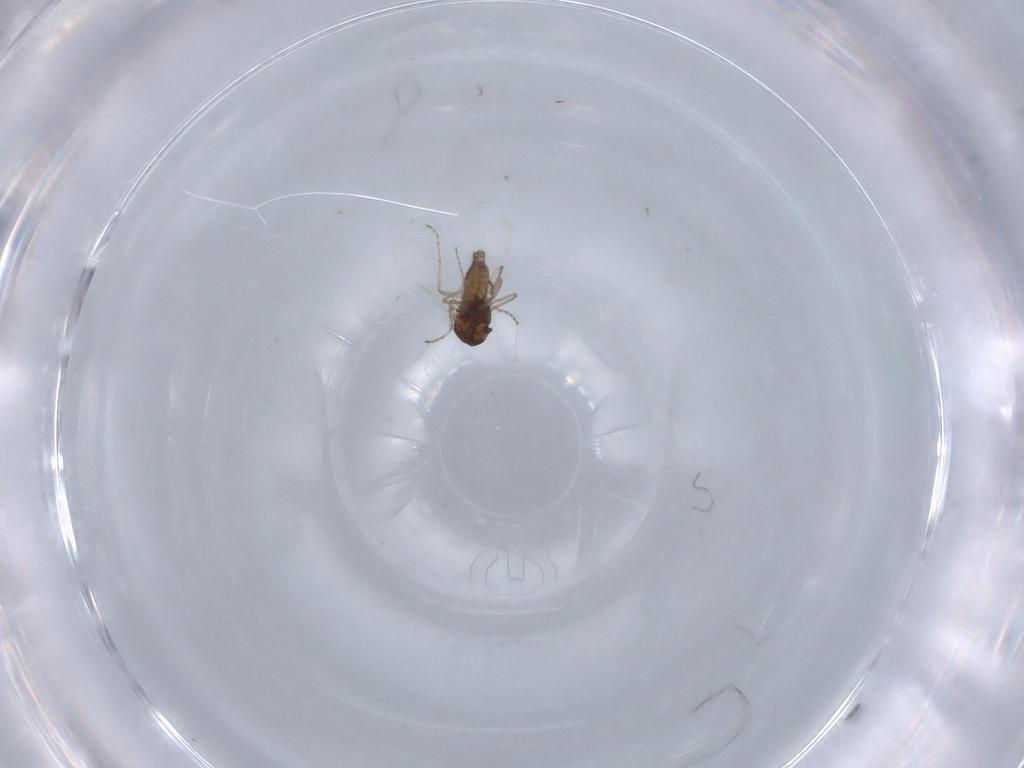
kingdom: Animalia
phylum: Arthropoda
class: Insecta
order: Diptera
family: Ceratopogonidae
